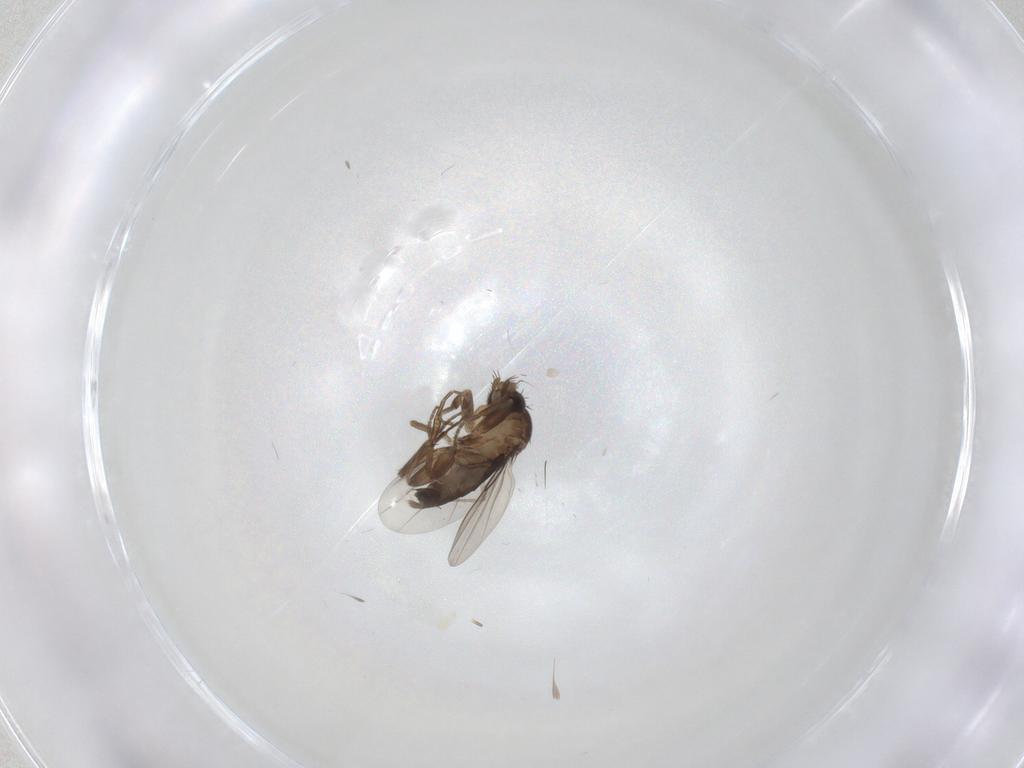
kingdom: Animalia
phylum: Arthropoda
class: Insecta
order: Diptera
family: Phoridae
